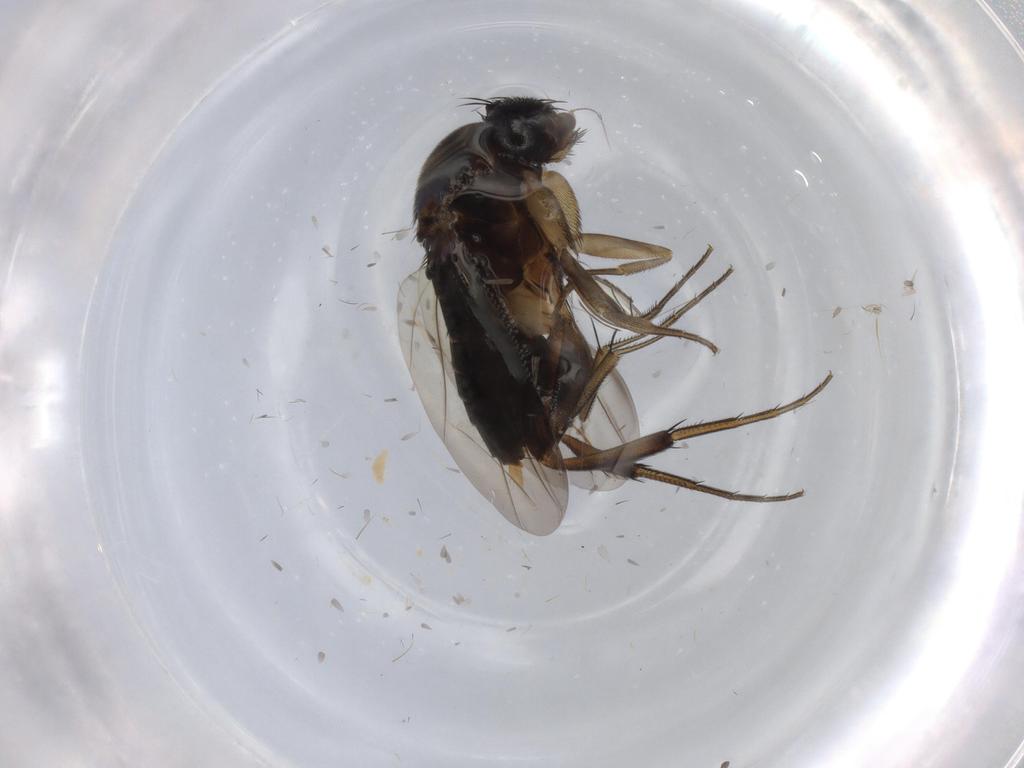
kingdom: Animalia
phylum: Arthropoda
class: Insecta
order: Diptera
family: Phoridae
